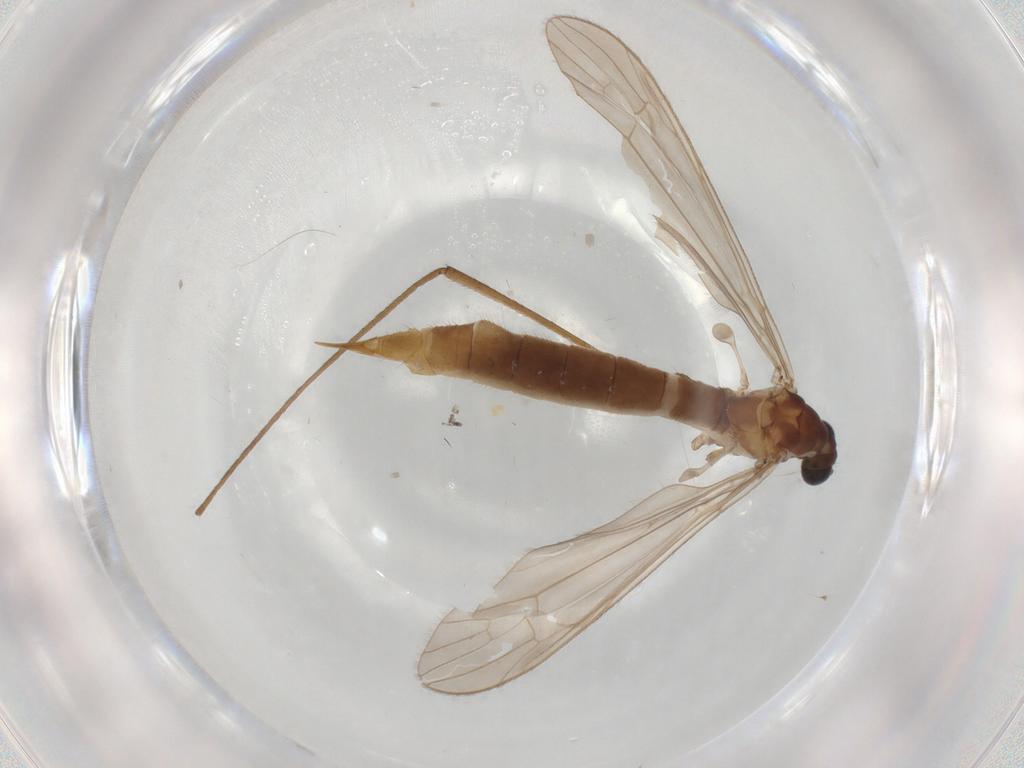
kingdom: Animalia
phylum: Arthropoda
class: Insecta
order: Diptera
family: Limoniidae
